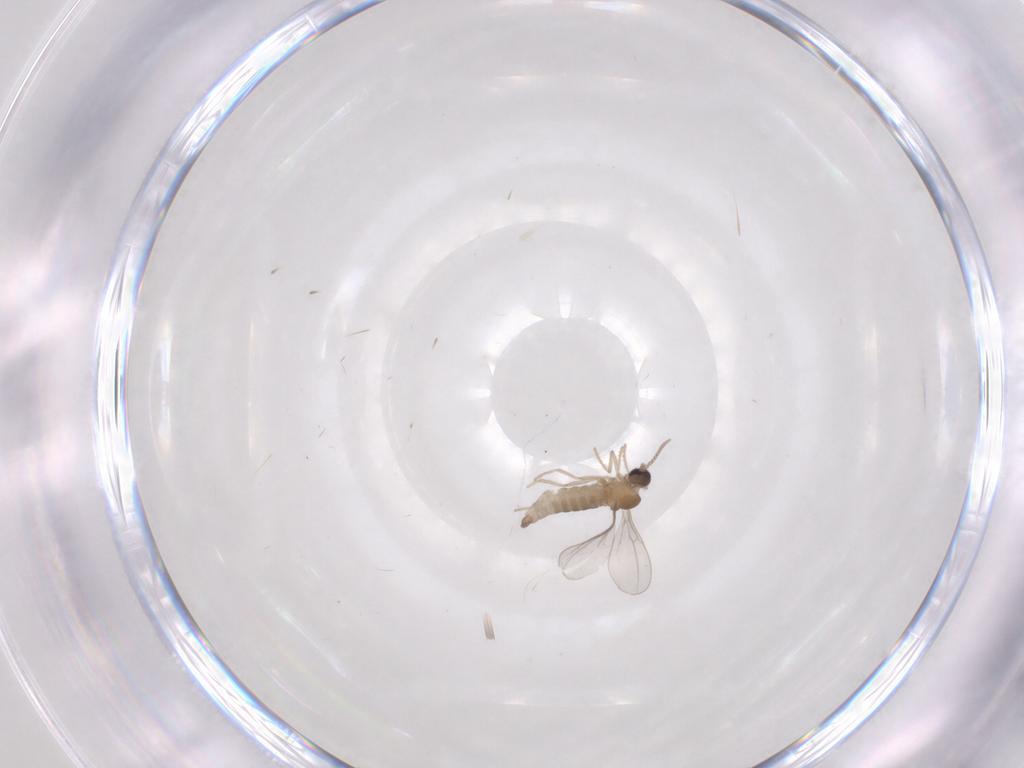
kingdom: Animalia
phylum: Arthropoda
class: Insecta
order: Diptera
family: Cecidomyiidae
